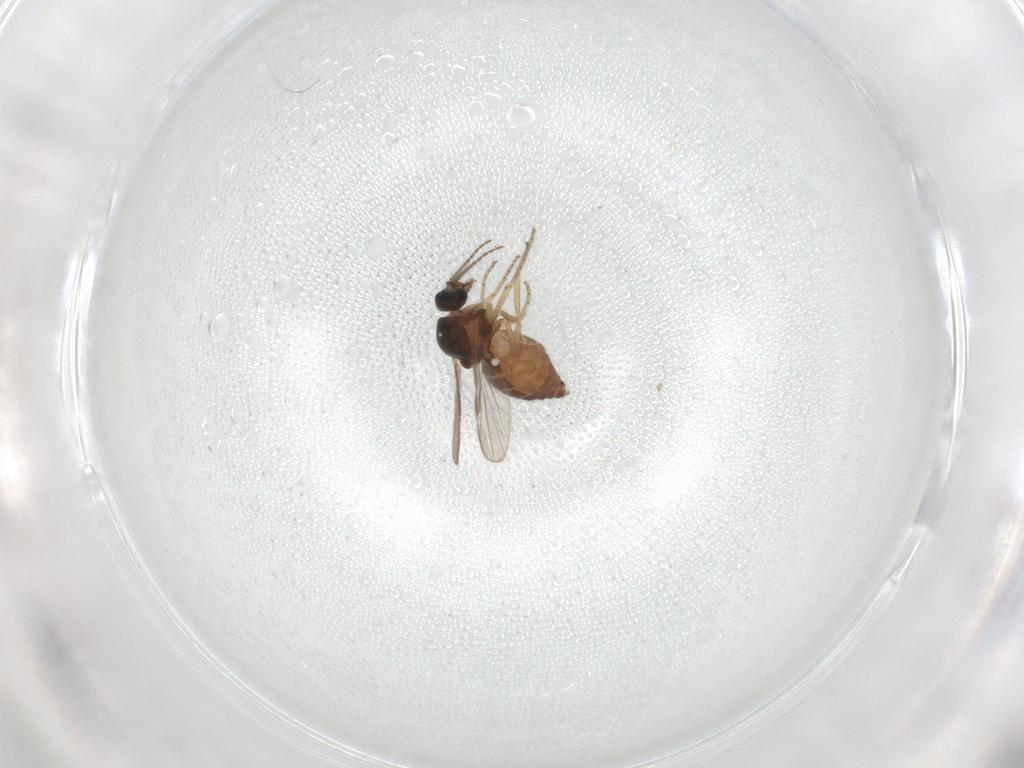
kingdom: Animalia
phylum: Arthropoda
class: Insecta
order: Diptera
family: Ceratopogonidae
